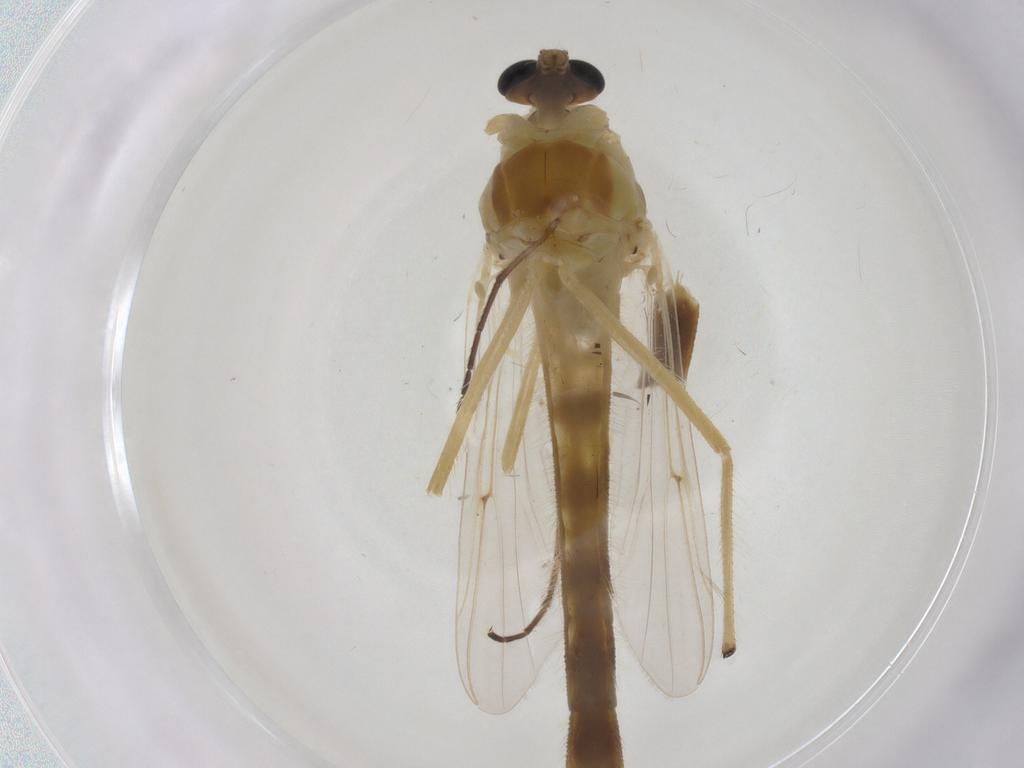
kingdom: Animalia
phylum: Arthropoda
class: Insecta
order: Diptera
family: Chironomidae
